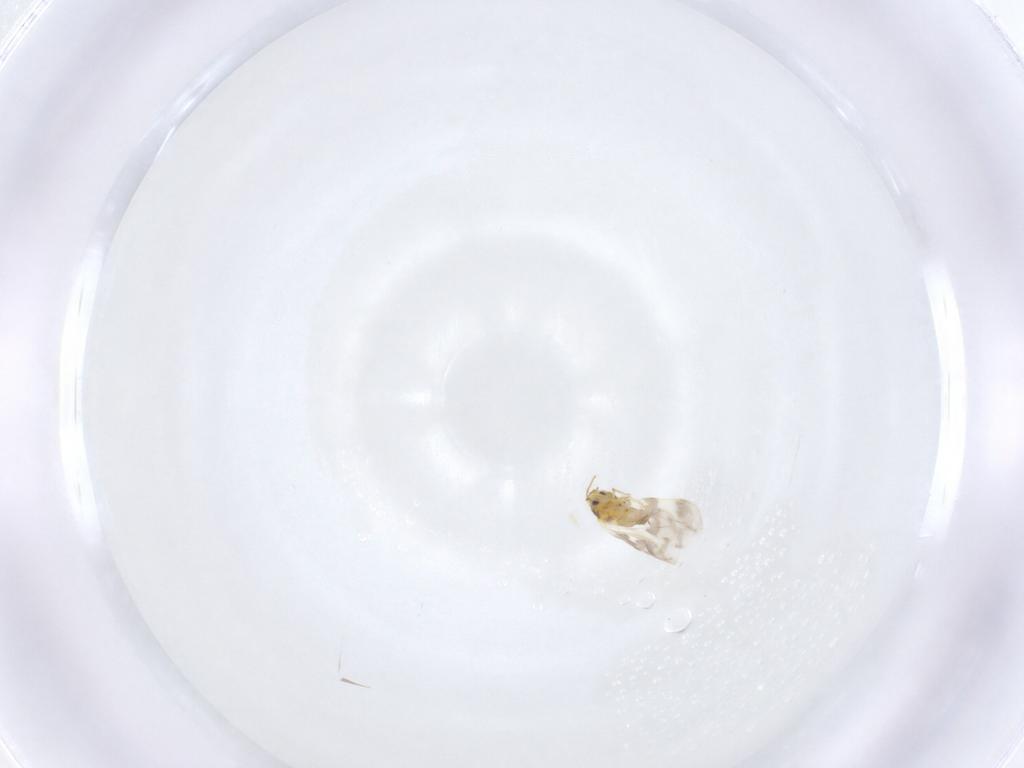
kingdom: Animalia
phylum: Arthropoda
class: Insecta
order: Hemiptera
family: Aleyrodidae
